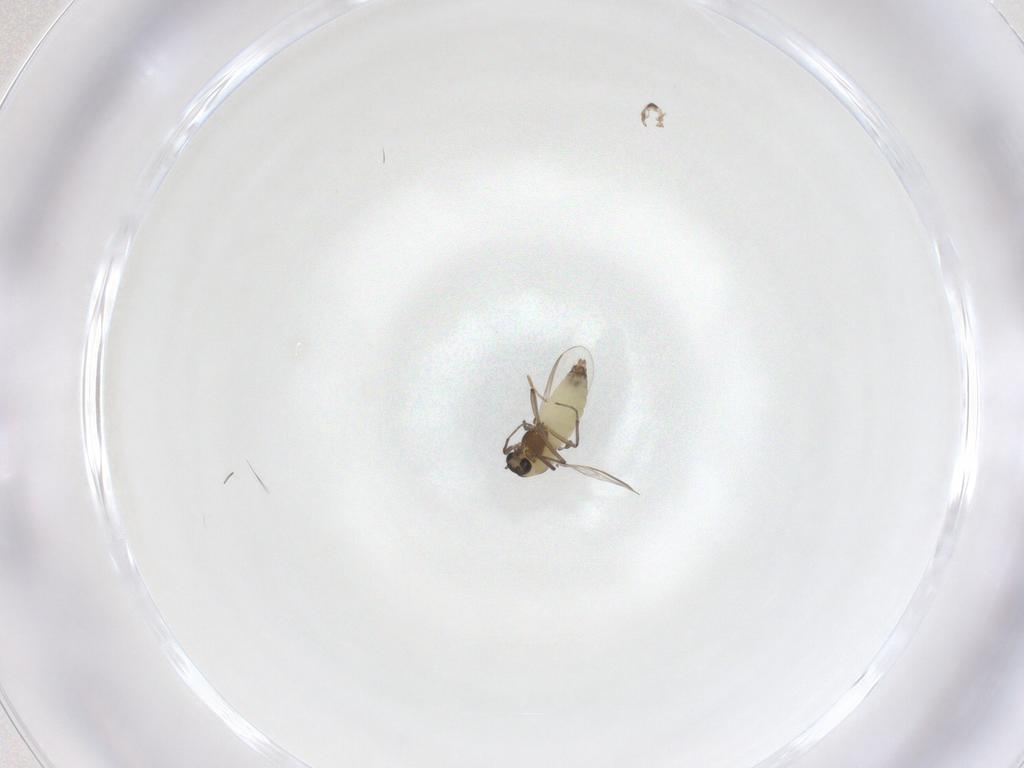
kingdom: Animalia
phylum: Arthropoda
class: Insecta
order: Diptera
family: Chironomidae
